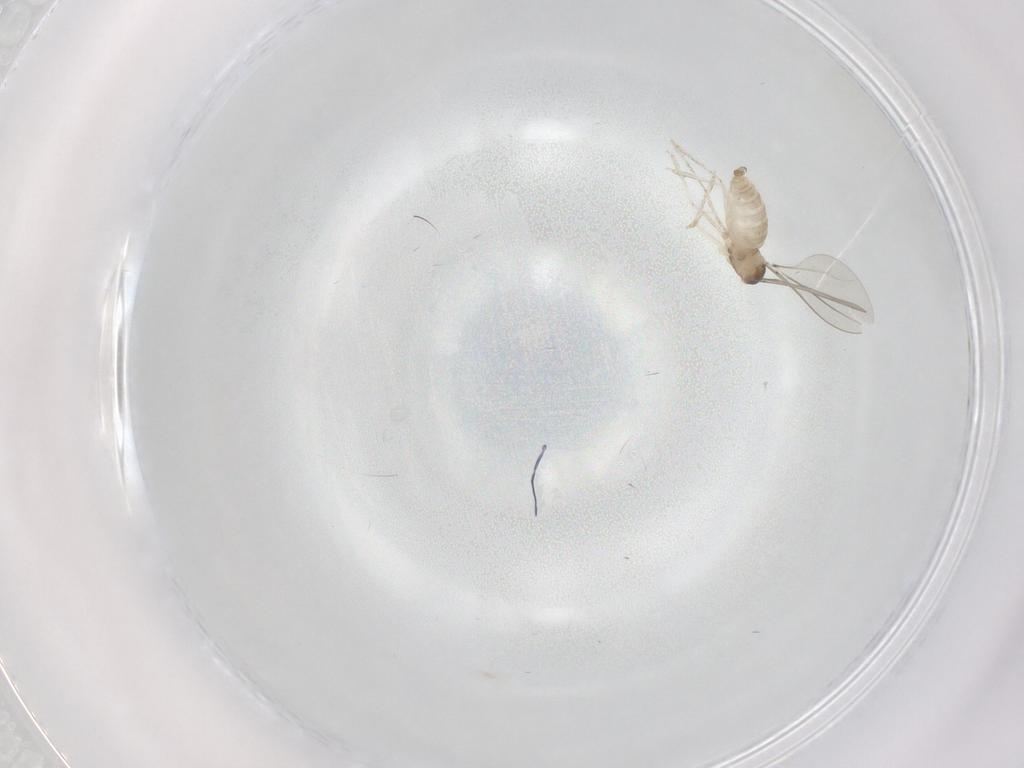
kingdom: Animalia
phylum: Arthropoda
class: Insecta
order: Diptera
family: Cecidomyiidae
